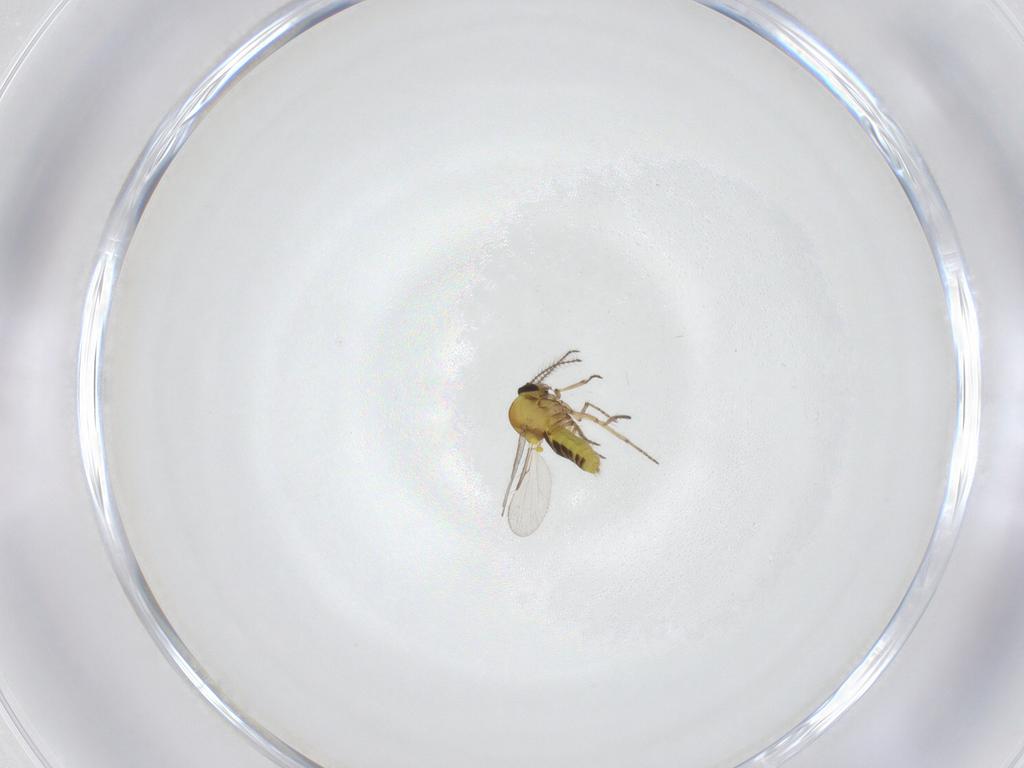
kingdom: Animalia
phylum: Arthropoda
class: Insecta
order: Diptera
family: Ceratopogonidae
